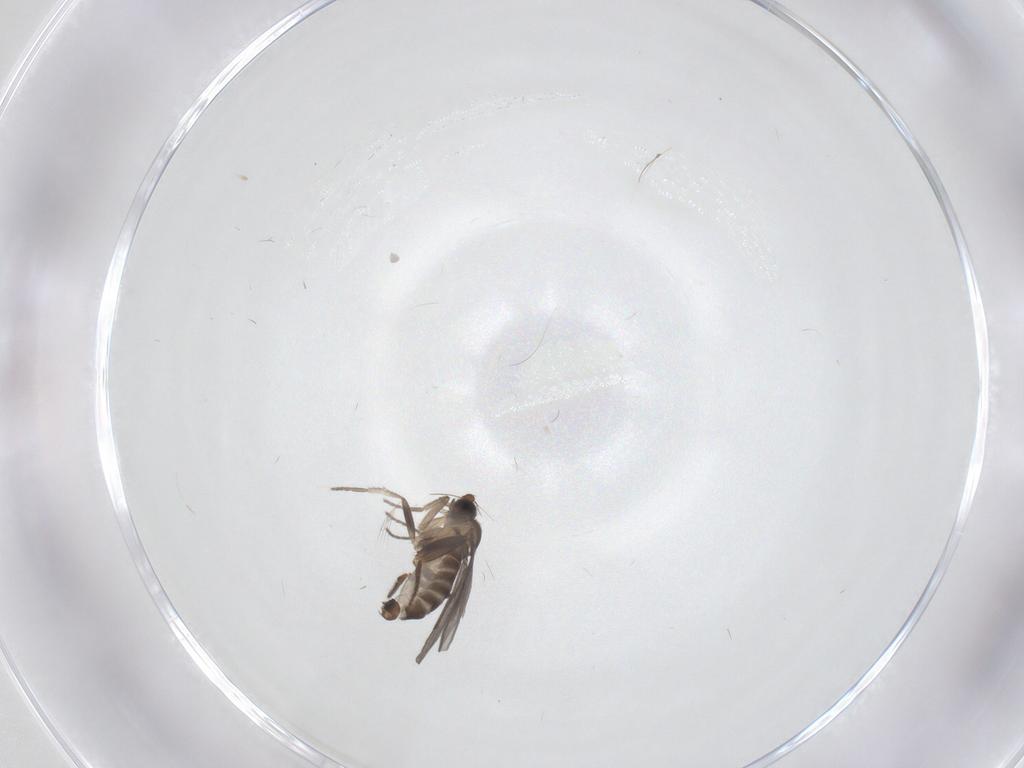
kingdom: Animalia
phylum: Arthropoda
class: Insecta
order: Diptera
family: Phoridae
